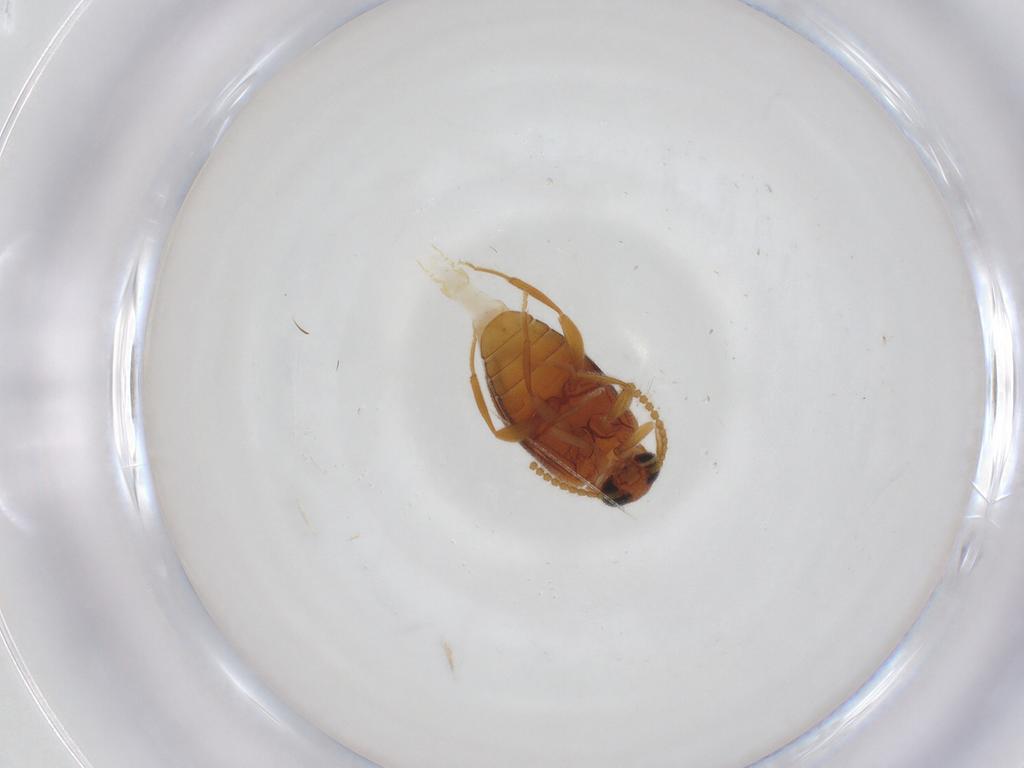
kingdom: Animalia
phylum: Arthropoda
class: Insecta
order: Coleoptera
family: Aderidae
